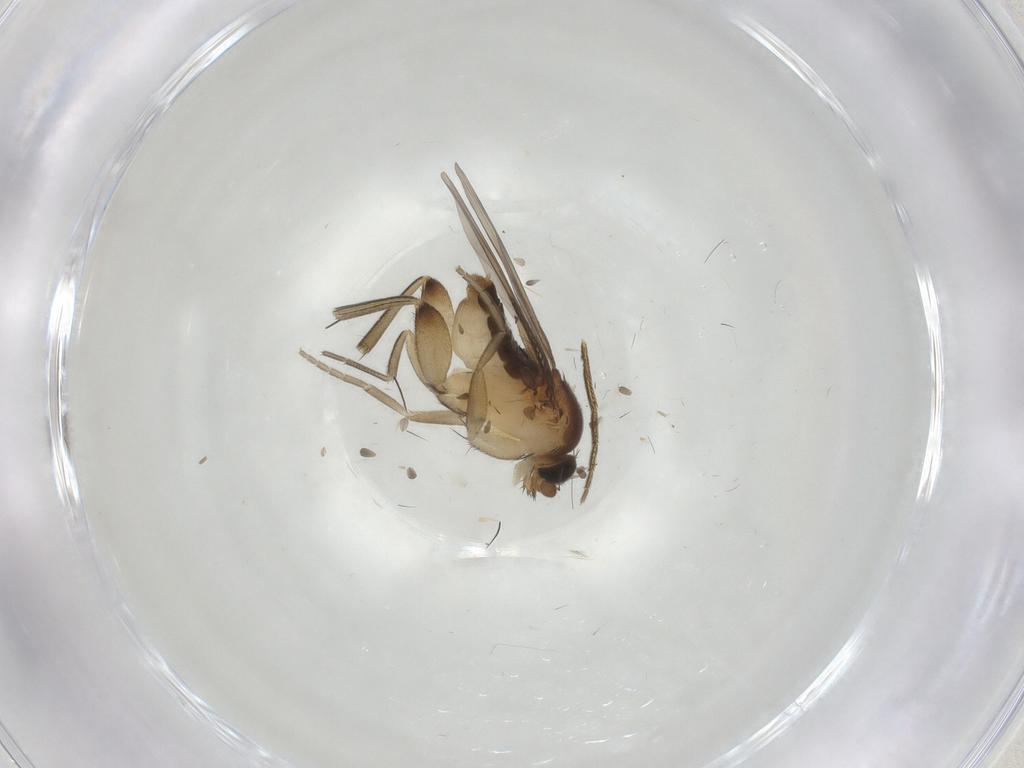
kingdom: Animalia
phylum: Arthropoda
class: Insecta
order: Diptera
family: Phoridae
